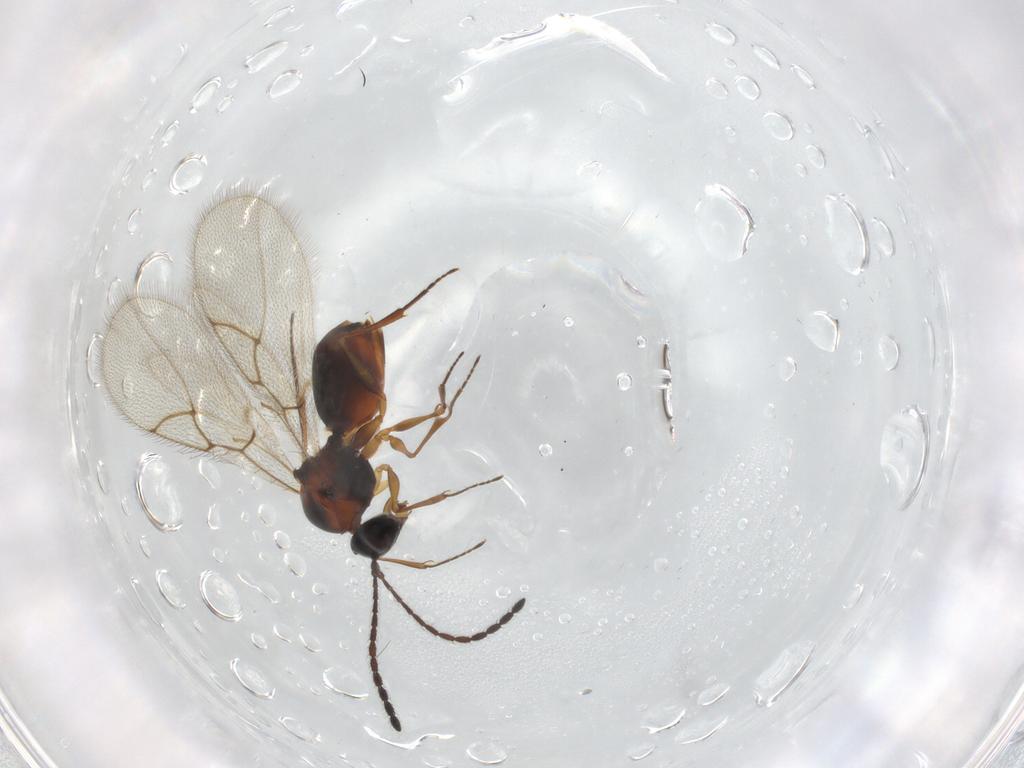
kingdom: Animalia
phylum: Arthropoda
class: Insecta
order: Hymenoptera
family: Figitidae
